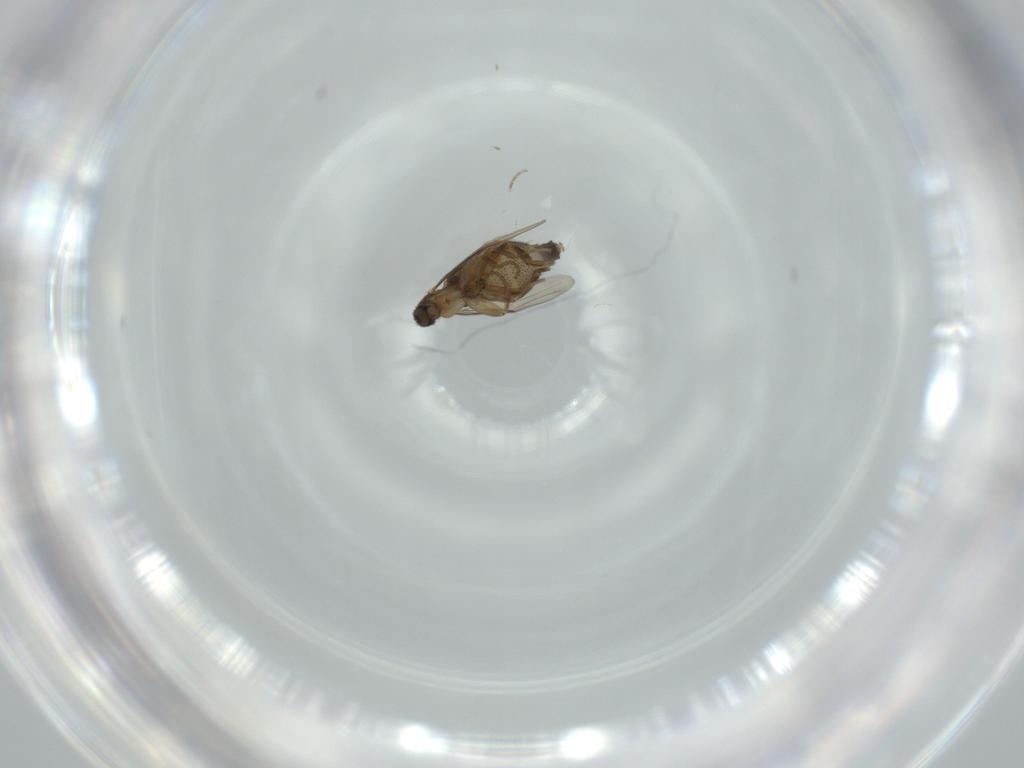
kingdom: Animalia
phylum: Arthropoda
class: Insecta
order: Diptera
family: Phoridae
